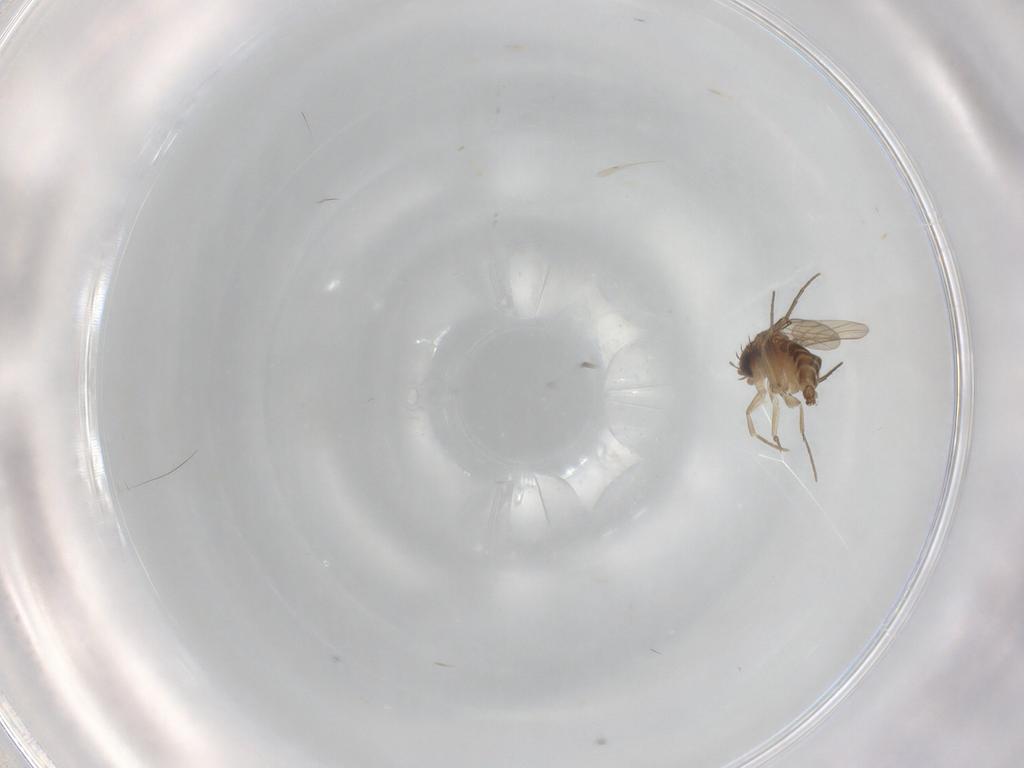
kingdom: Animalia
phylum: Arthropoda
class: Insecta
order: Diptera
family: Phoridae
